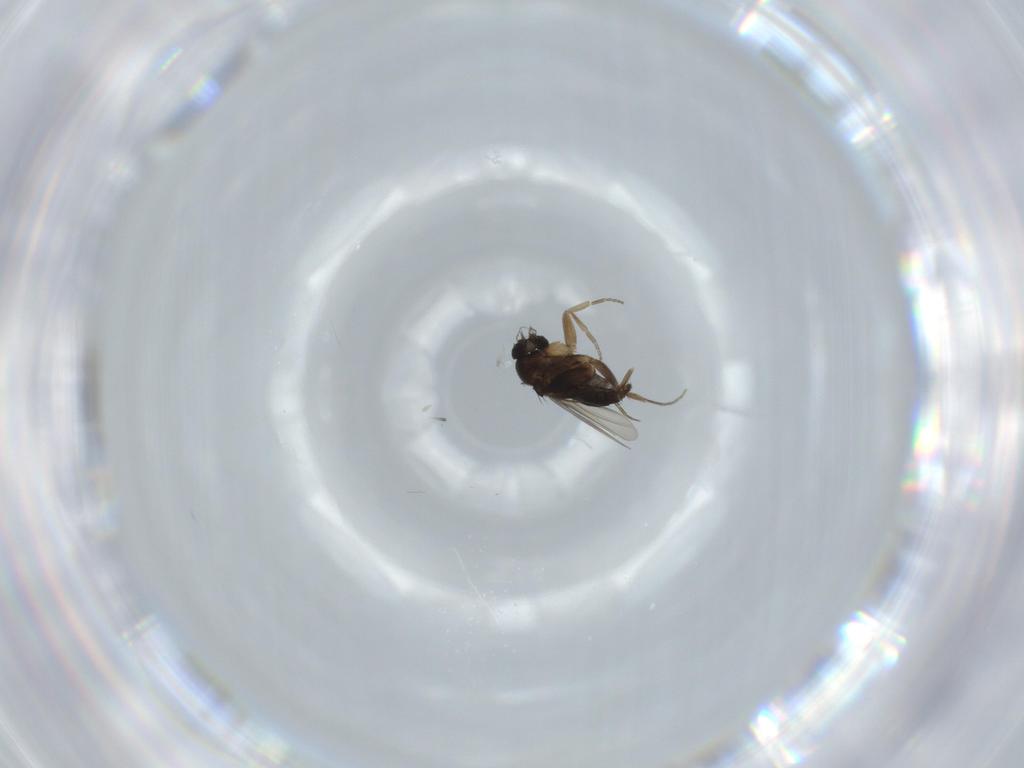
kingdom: Animalia
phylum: Arthropoda
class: Insecta
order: Diptera
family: Phoridae
